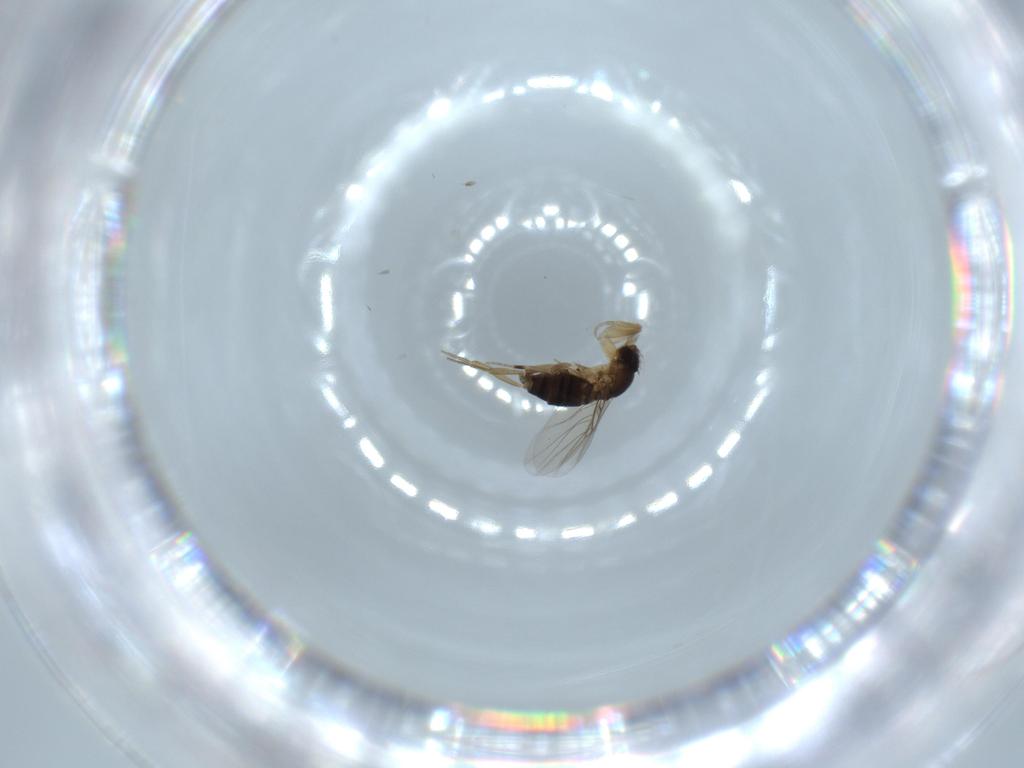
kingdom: Animalia
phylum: Arthropoda
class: Insecta
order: Diptera
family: Phoridae
